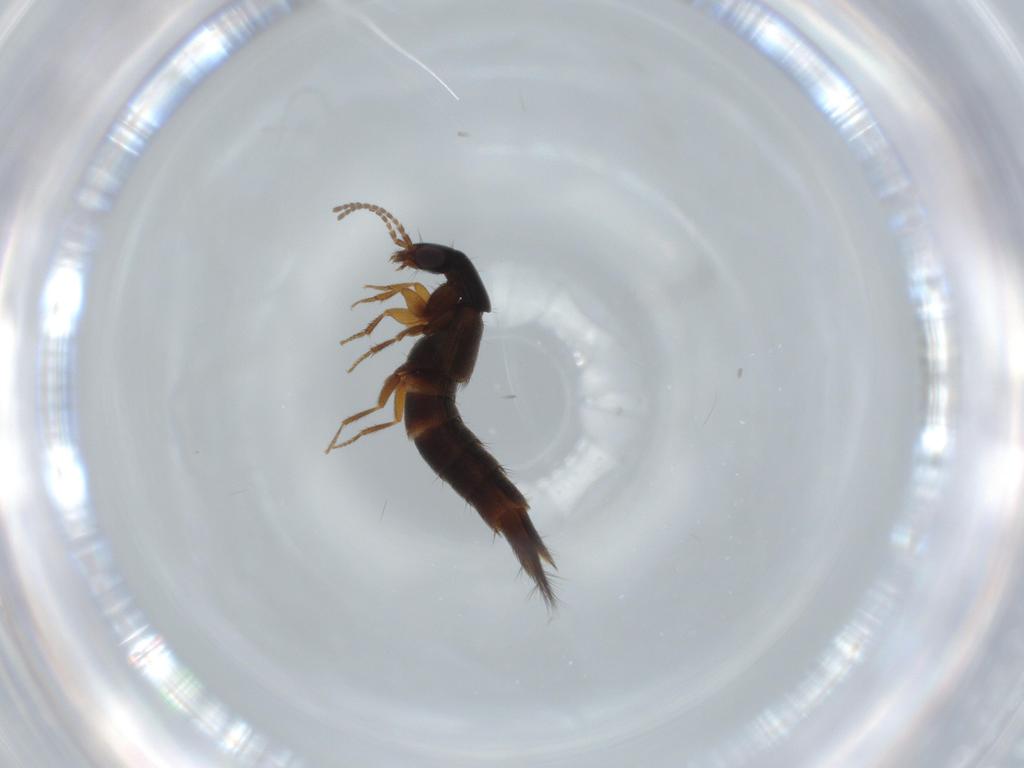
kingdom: Animalia
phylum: Arthropoda
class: Insecta
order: Coleoptera
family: Staphylinidae
